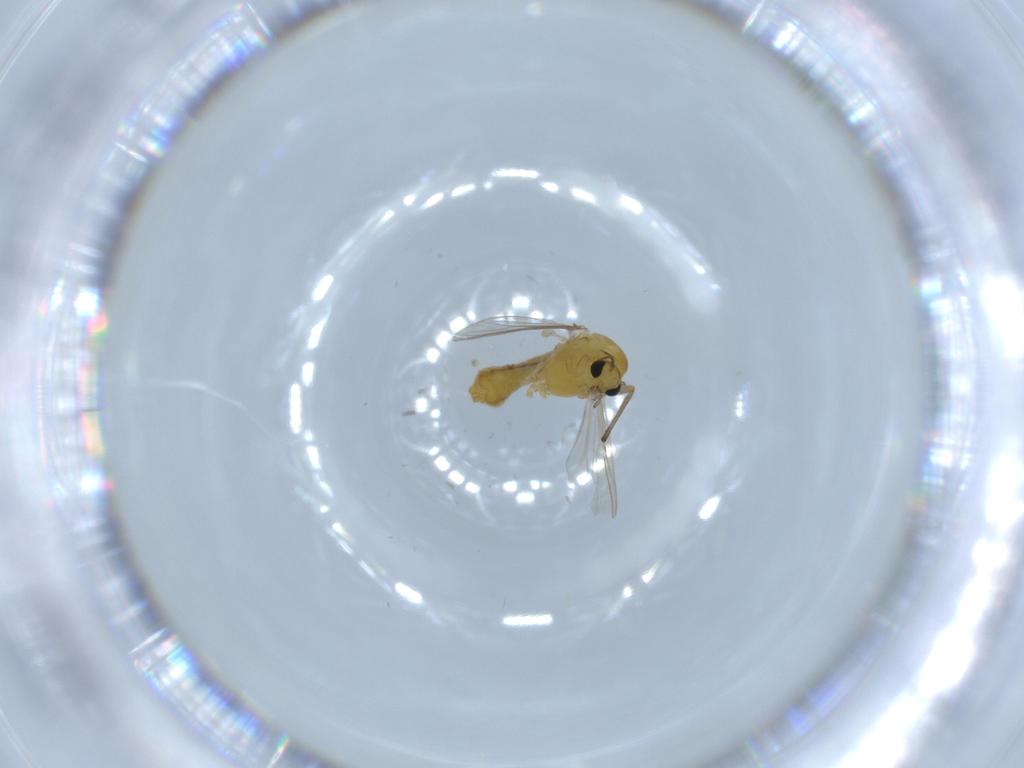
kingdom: Animalia
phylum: Arthropoda
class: Insecta
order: Diptera
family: Chironomidae
